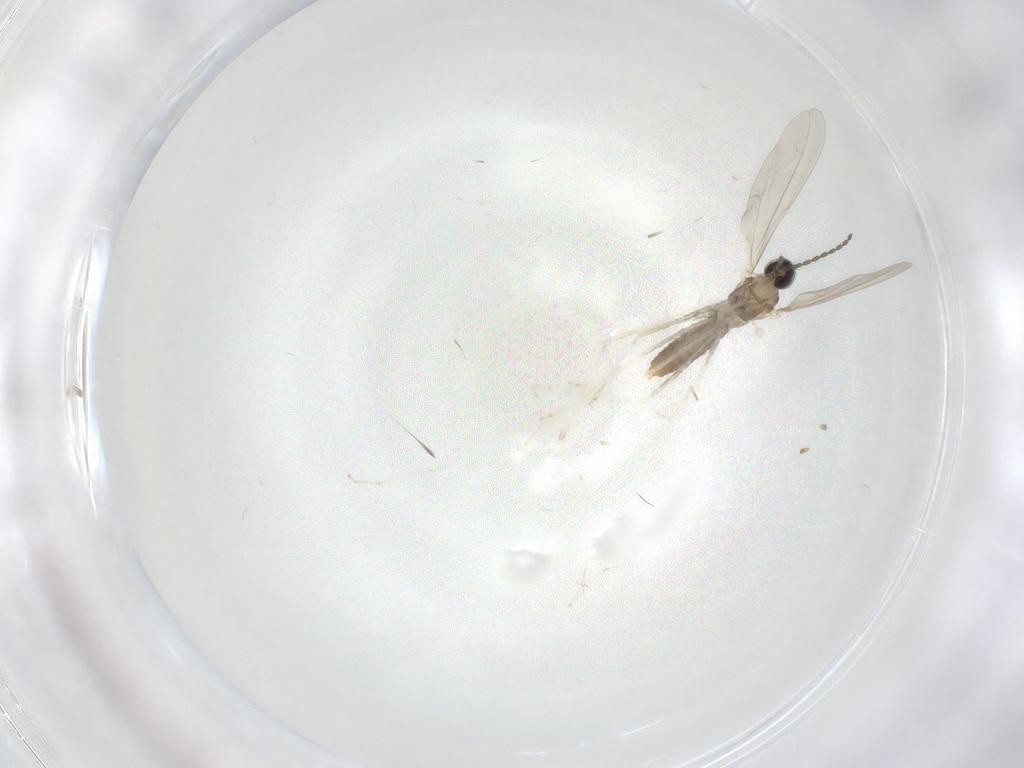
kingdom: Animalia
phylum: Arthropoda
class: Insecta
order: Diptera
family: Cecidomyiidae
